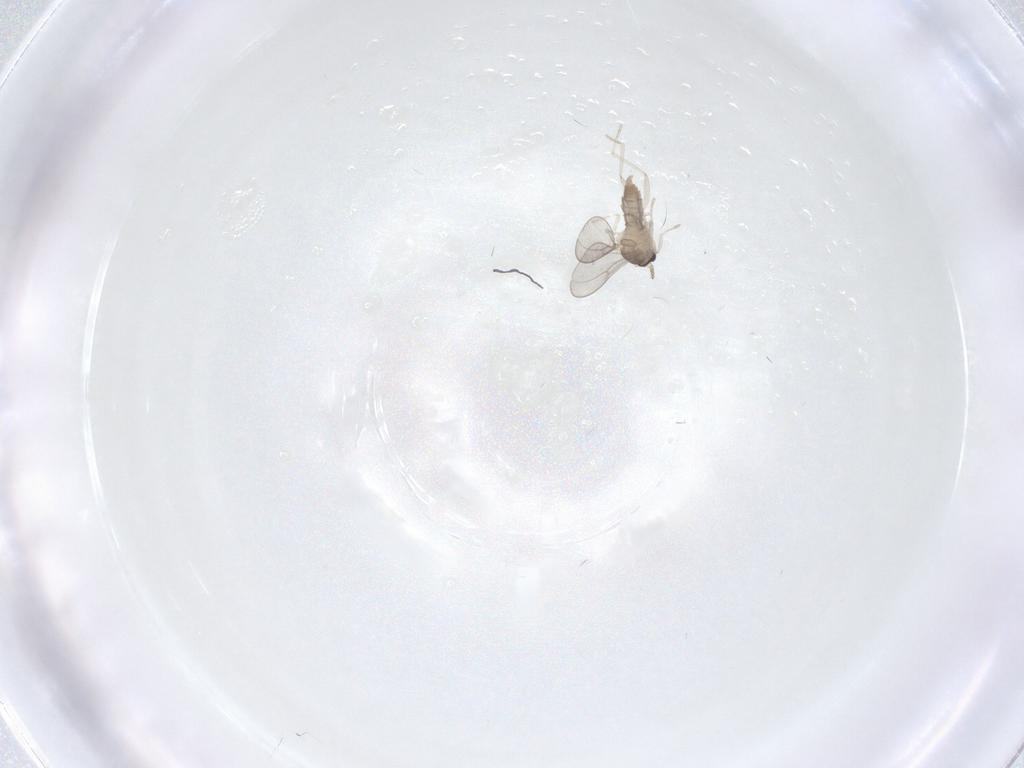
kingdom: Animalia
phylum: Arthropoda
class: Insecta
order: Diptera
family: Cecidomyiidae
